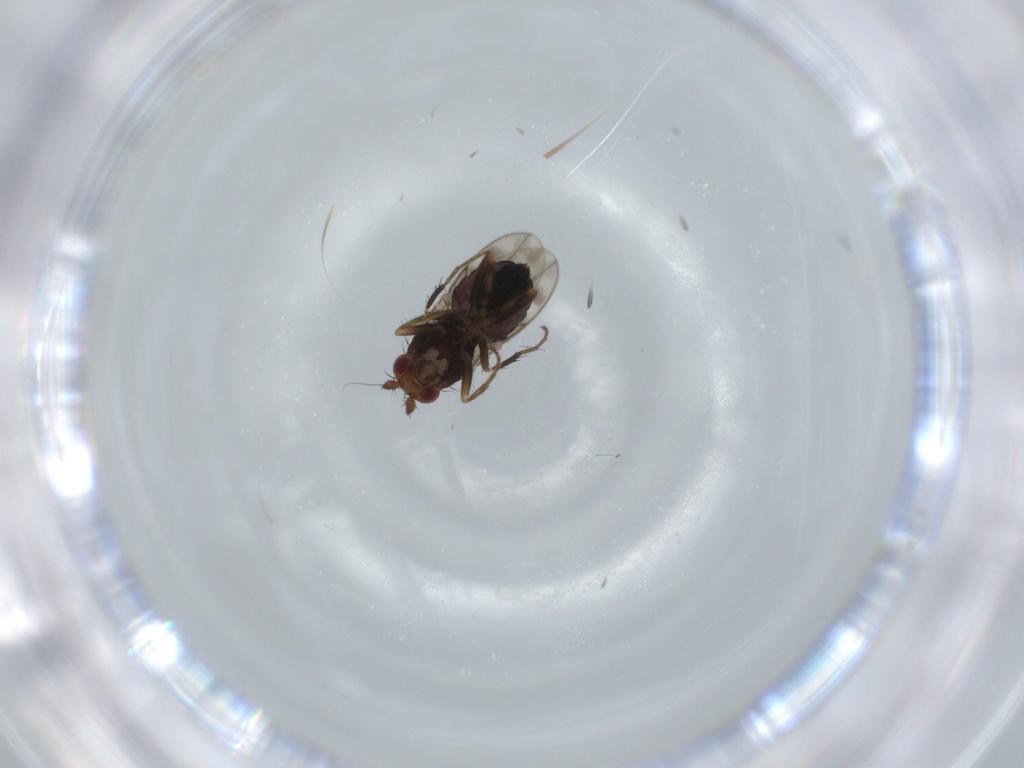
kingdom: Animalia
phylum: Arthropoda
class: Insecta
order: Diptera
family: Sphaeroceridae
